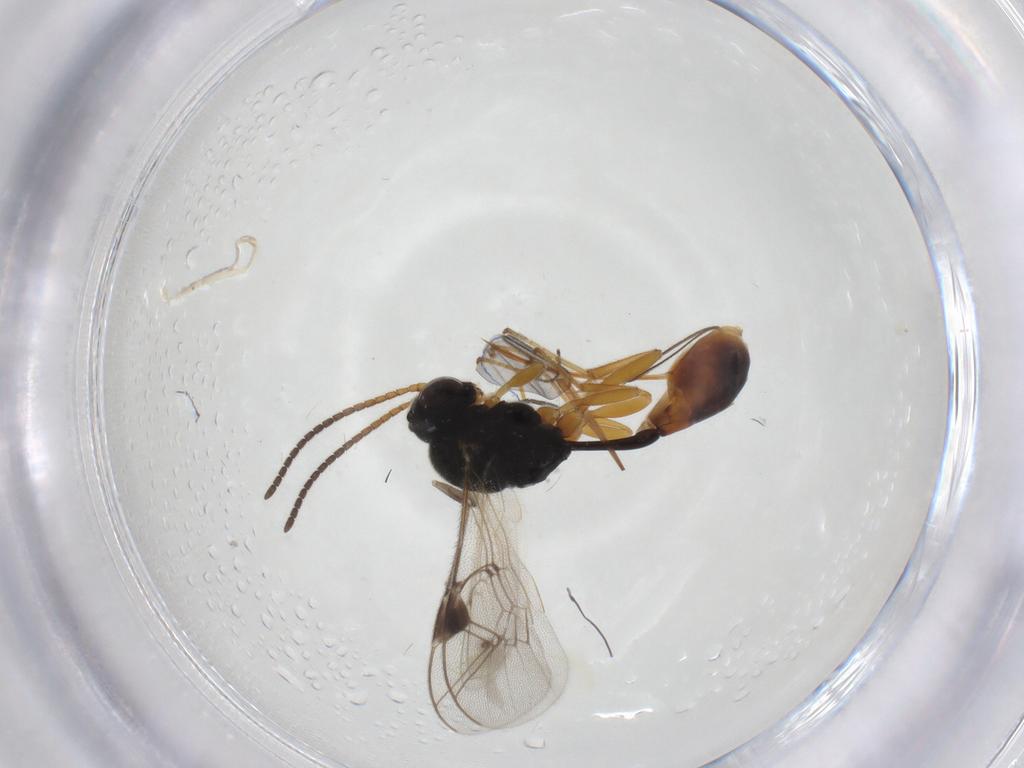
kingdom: Animalia
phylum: Arthropoda
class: Insecta
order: Hymenoptera
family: Ichneumonidae
